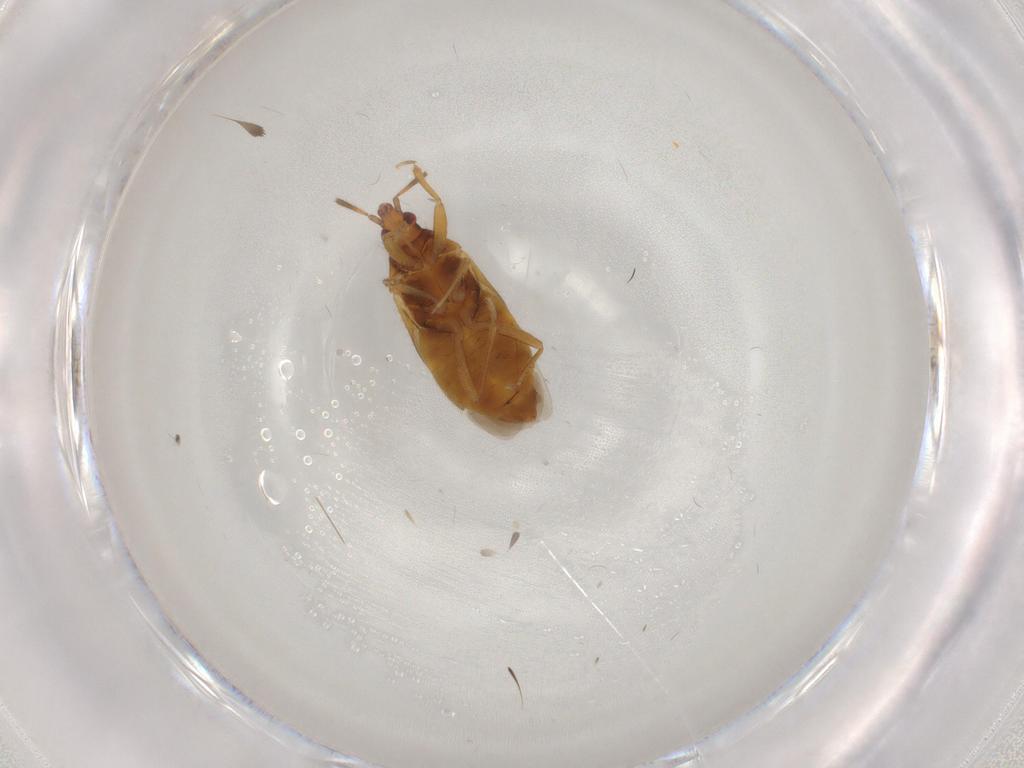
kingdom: Animalia
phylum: Arthropoda
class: Insecta
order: Hemiptera
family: Lasiochilidae
